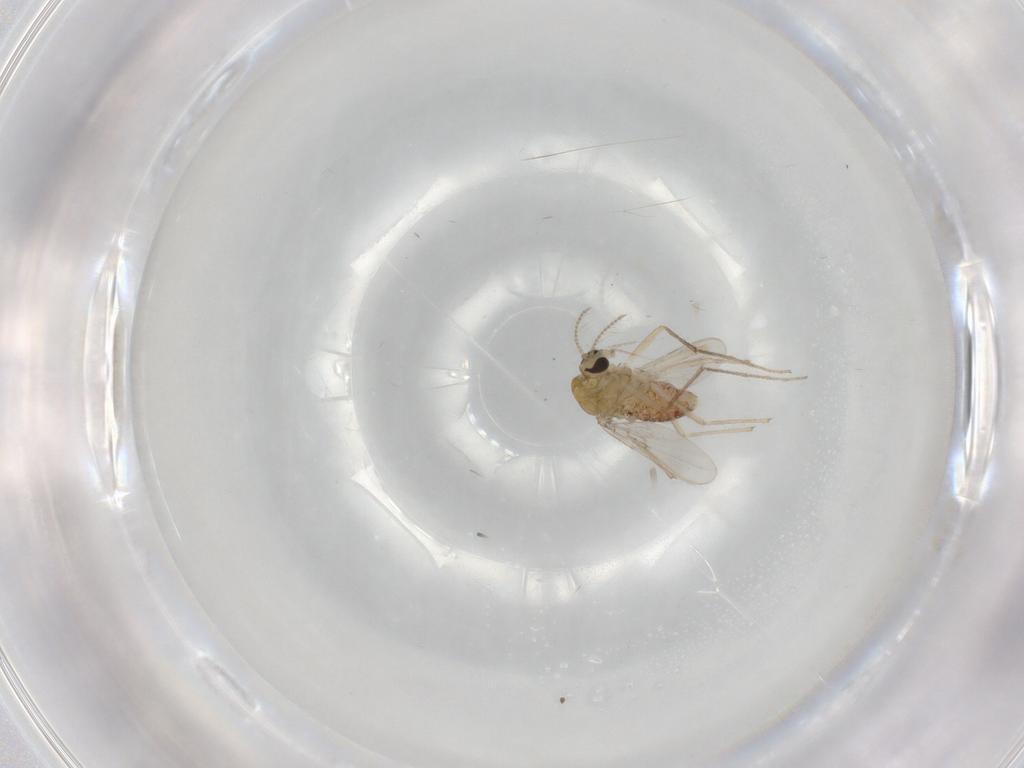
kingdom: Animalia
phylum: Arthropoda
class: Insecta
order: Diptera
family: Chironomidae
